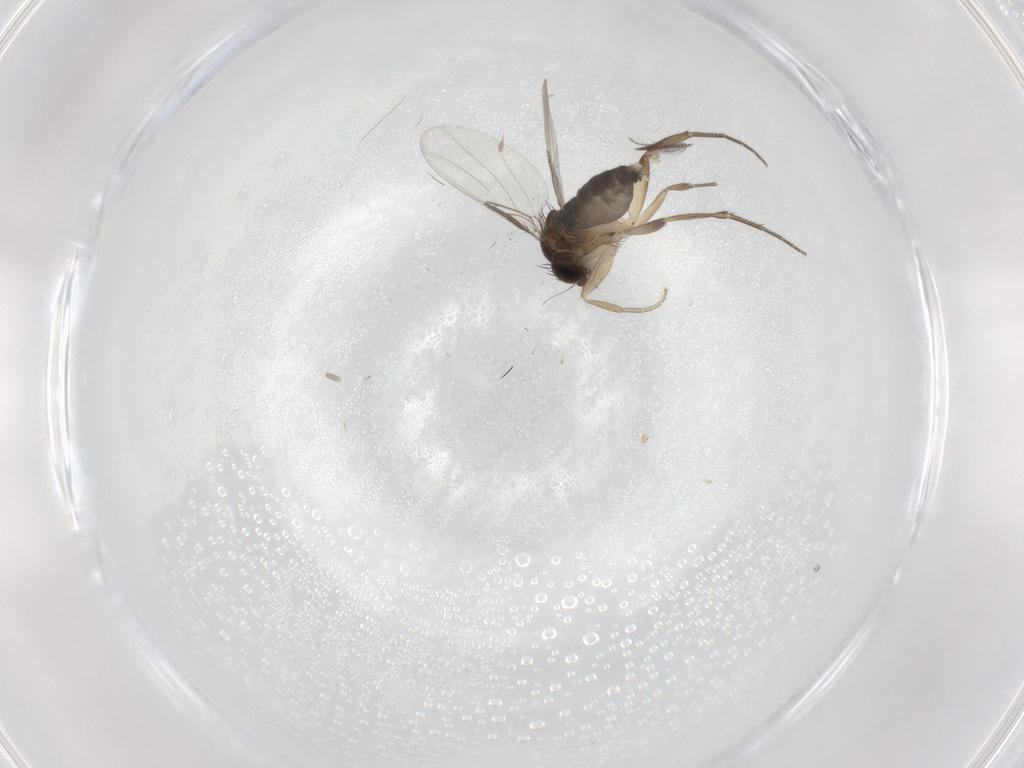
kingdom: Animalia
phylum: Arthropoda
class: Insecta
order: Diptera
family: Phoridae
